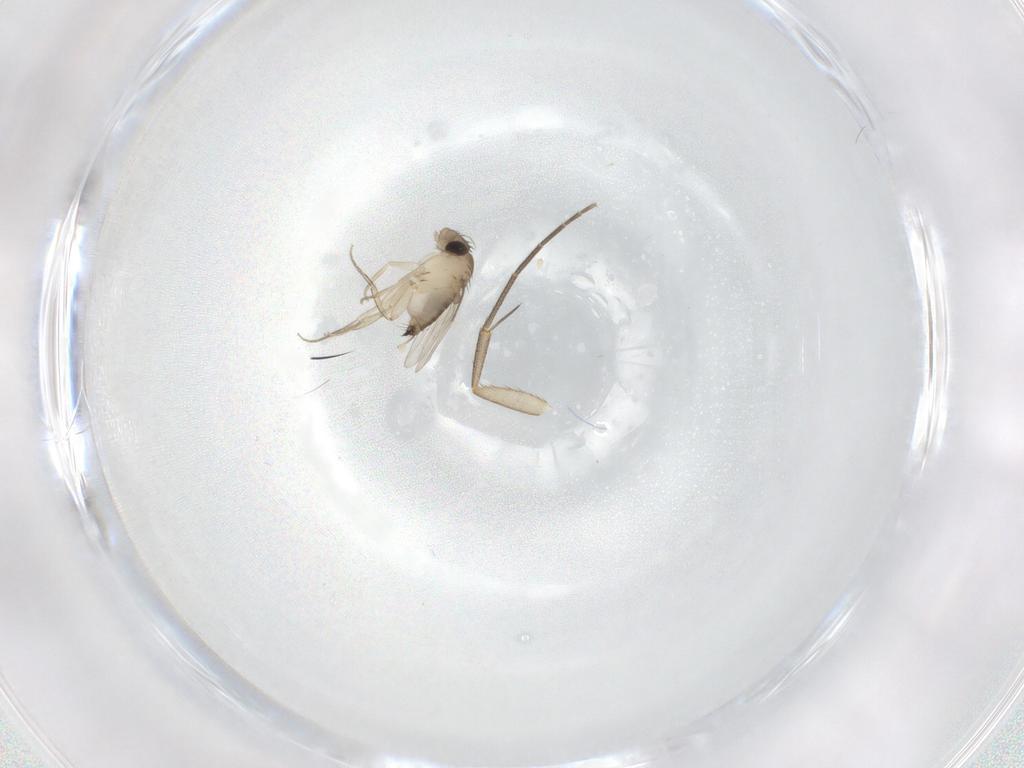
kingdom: Animalia
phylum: Arthropoda
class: Insecta
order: Diptera
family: Phoridae
